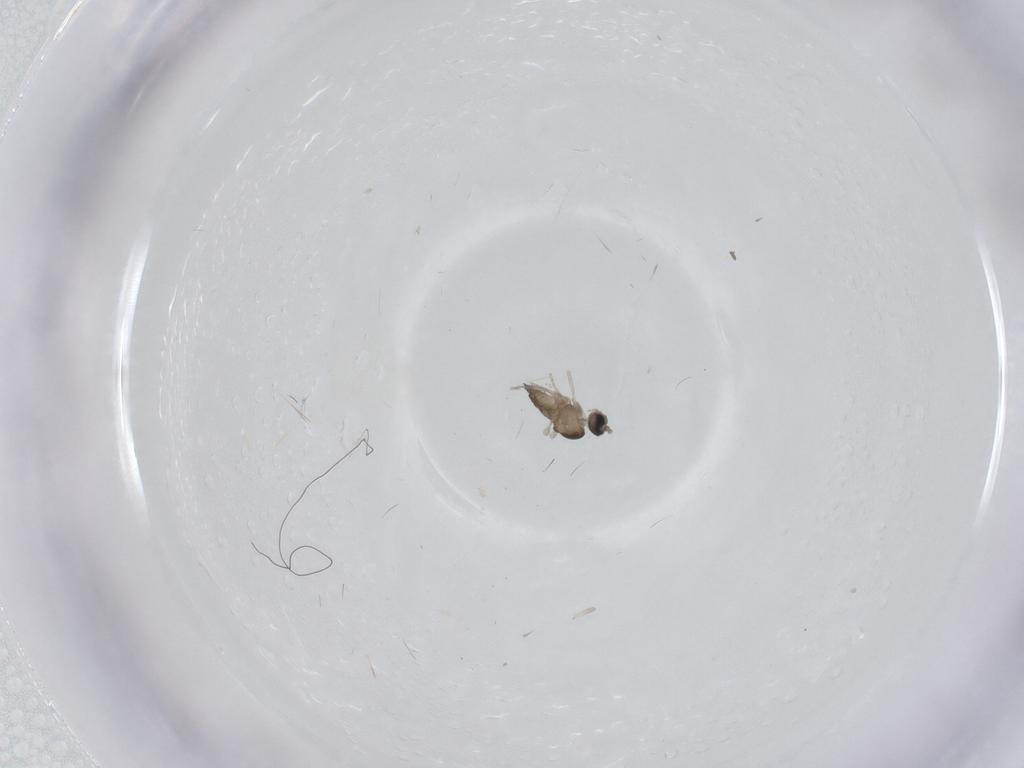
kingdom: Animalia
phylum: Arthropoda
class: Insecta
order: Diptera
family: Cecidomyiidae
